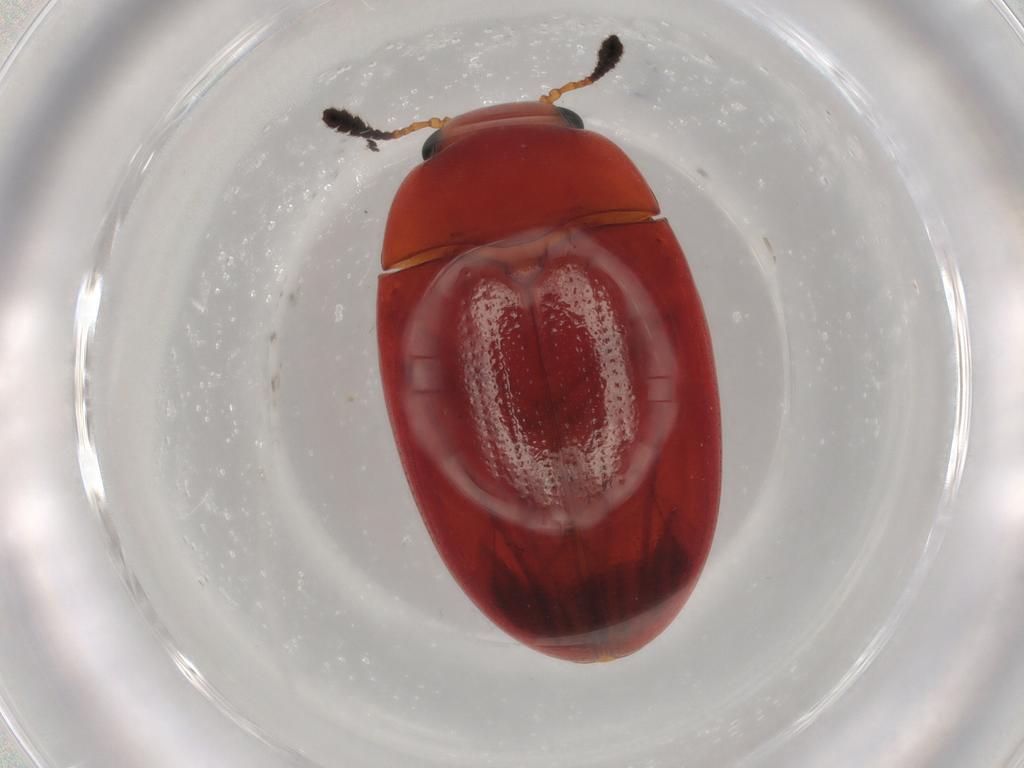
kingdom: Animalia
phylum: Arthropoda
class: Insecta
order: Coleoptera
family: Erotylidae
